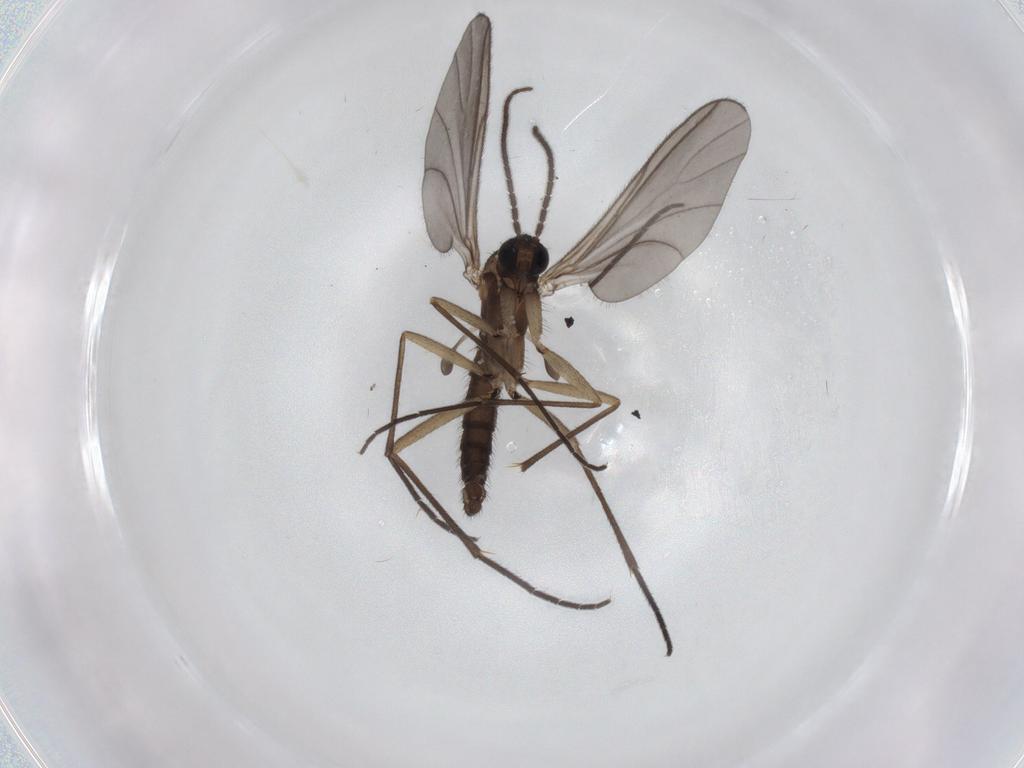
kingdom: Animalia
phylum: Arthropoda
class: Insecta
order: Diptera
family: Sciaridae
